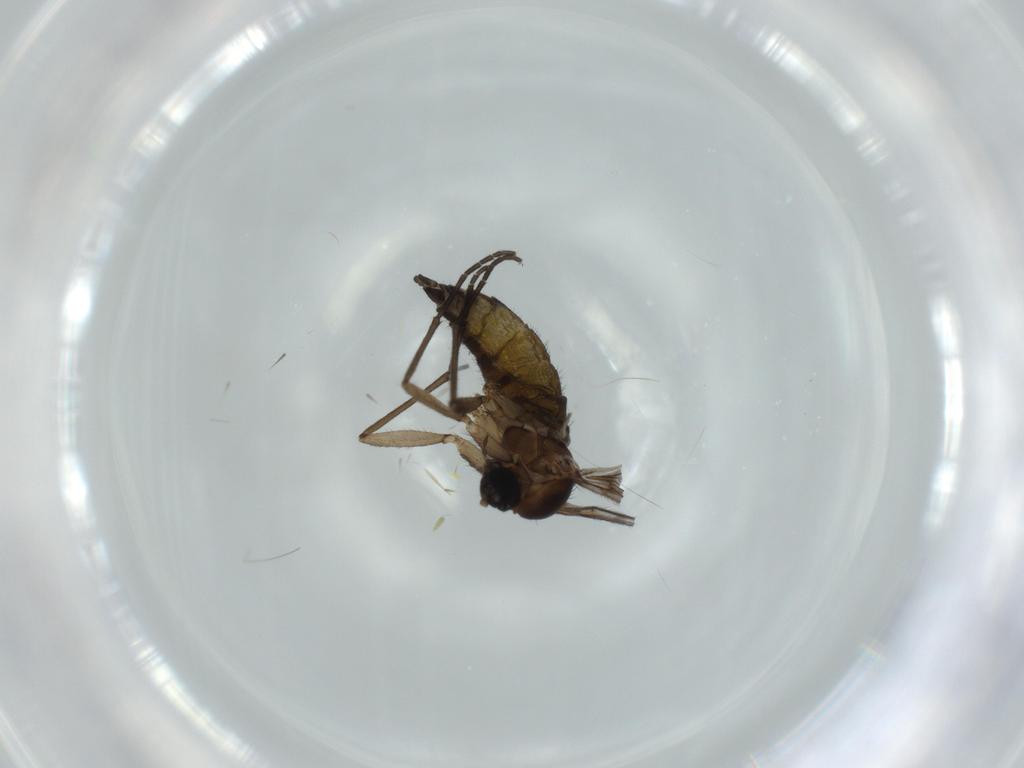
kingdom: Animalia
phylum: Arthropoda
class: Insecta
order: Diptera
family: Sciaridae
